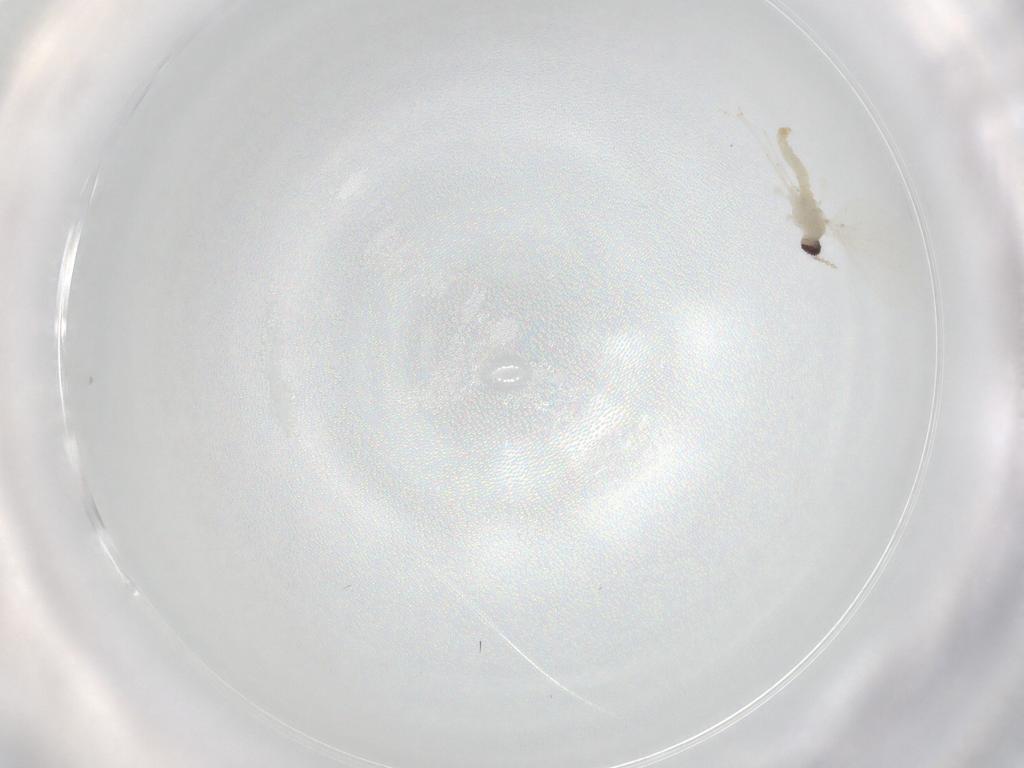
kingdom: Animalia
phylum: Arthropoda
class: Insecta
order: Diptera
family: Cecidomyiidae
